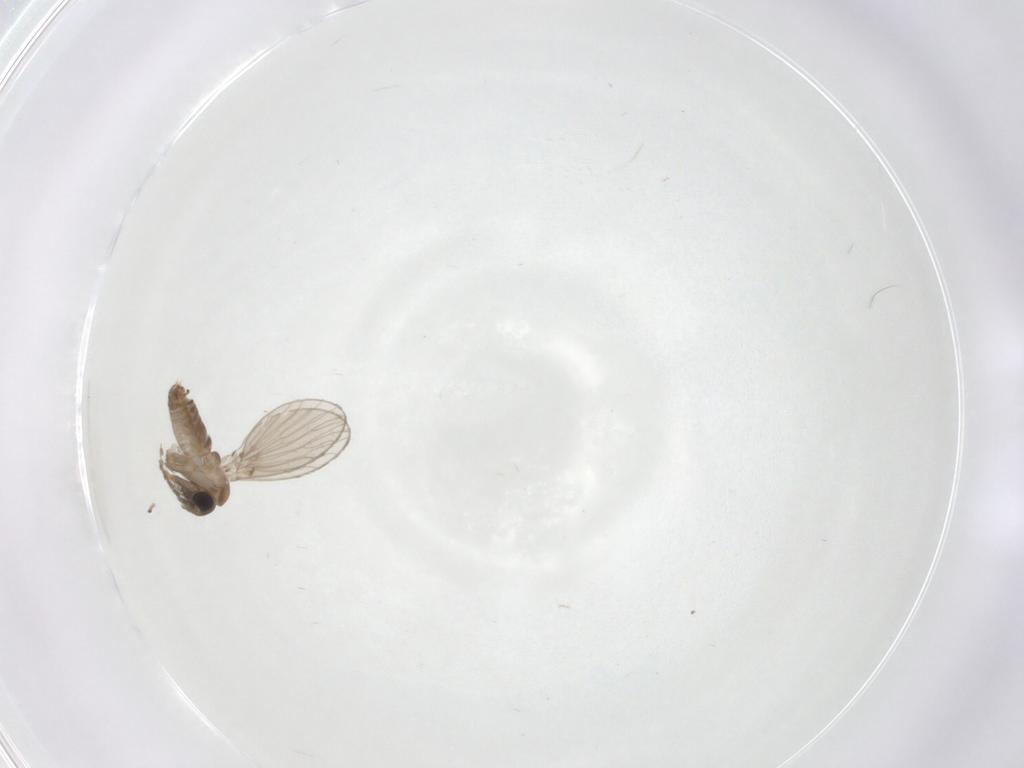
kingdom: Animalia
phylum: Arthropoda
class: Insecta
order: Diptera
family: Psychodidae
